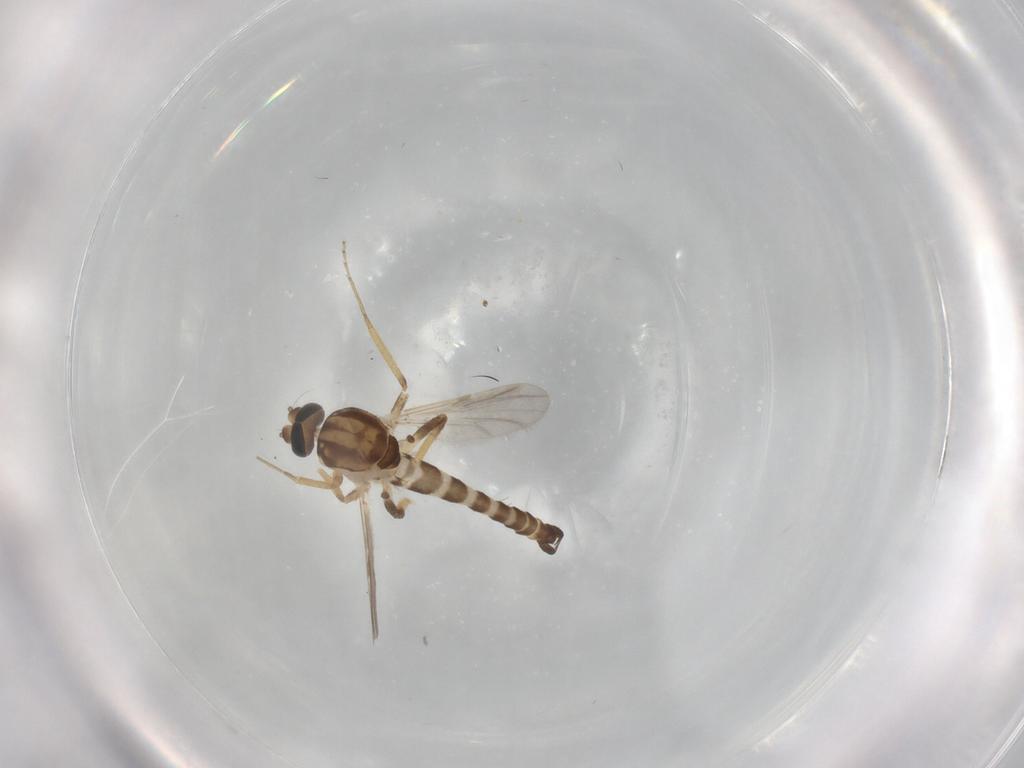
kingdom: Animalia
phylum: Arthropoda
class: Insecta
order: Diptera
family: Ceratopogonidae
